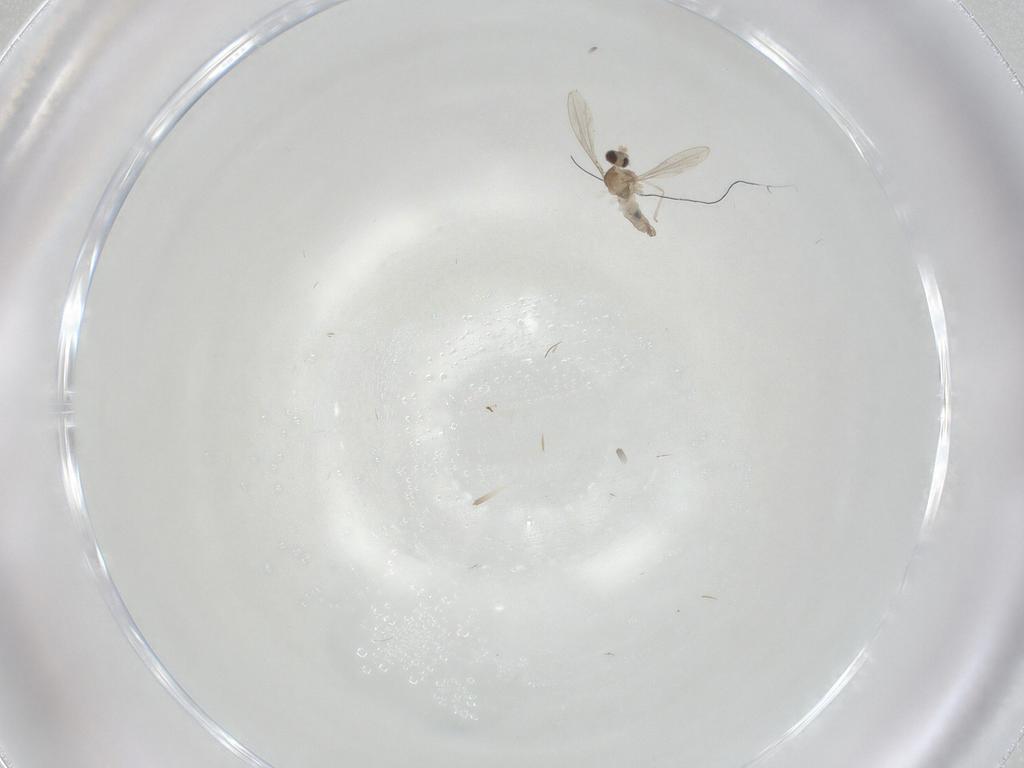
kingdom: Animalia
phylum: Arthropoda
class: Insecta
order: Diptera
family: Cecidomyiidae
